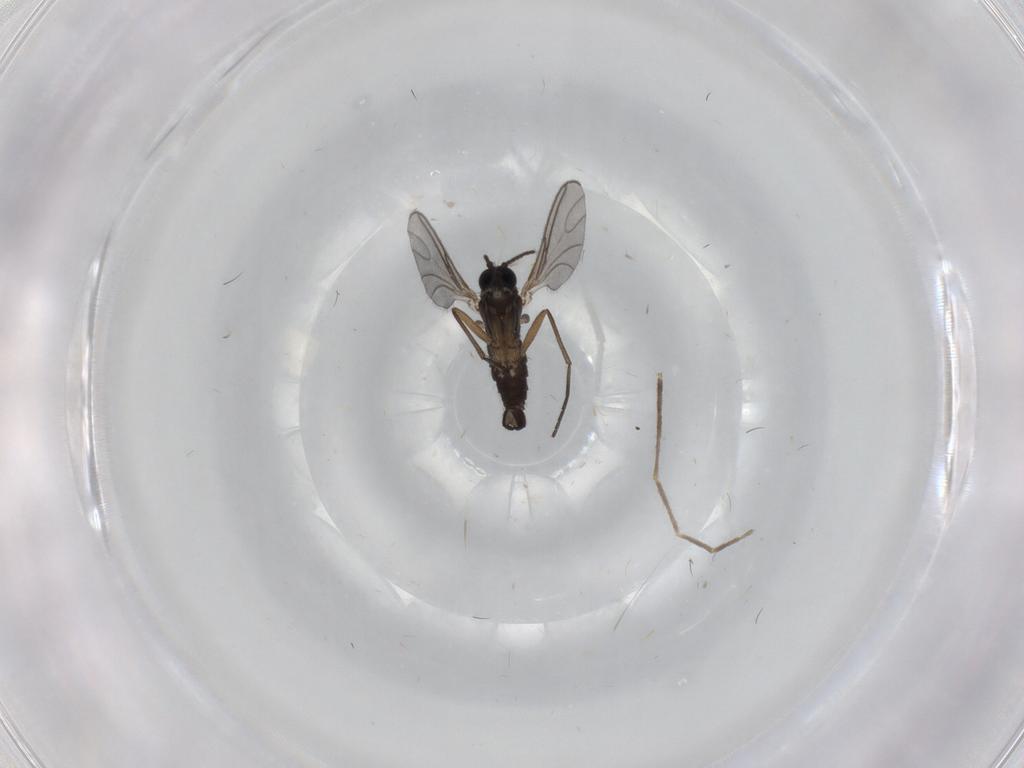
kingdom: Animalia
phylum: Arthropoda
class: Insecta
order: Diptera
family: Sciaridae
